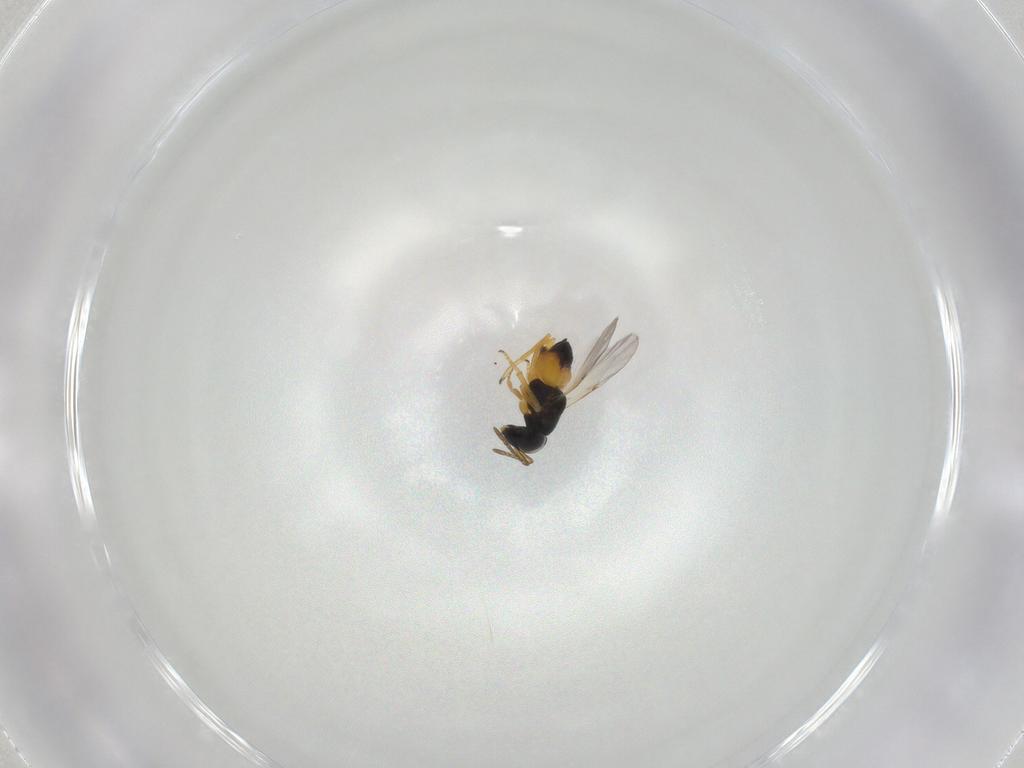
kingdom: Animalia
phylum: Arthropoda
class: Insecta
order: Hymenoptera
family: Encyrtidae
